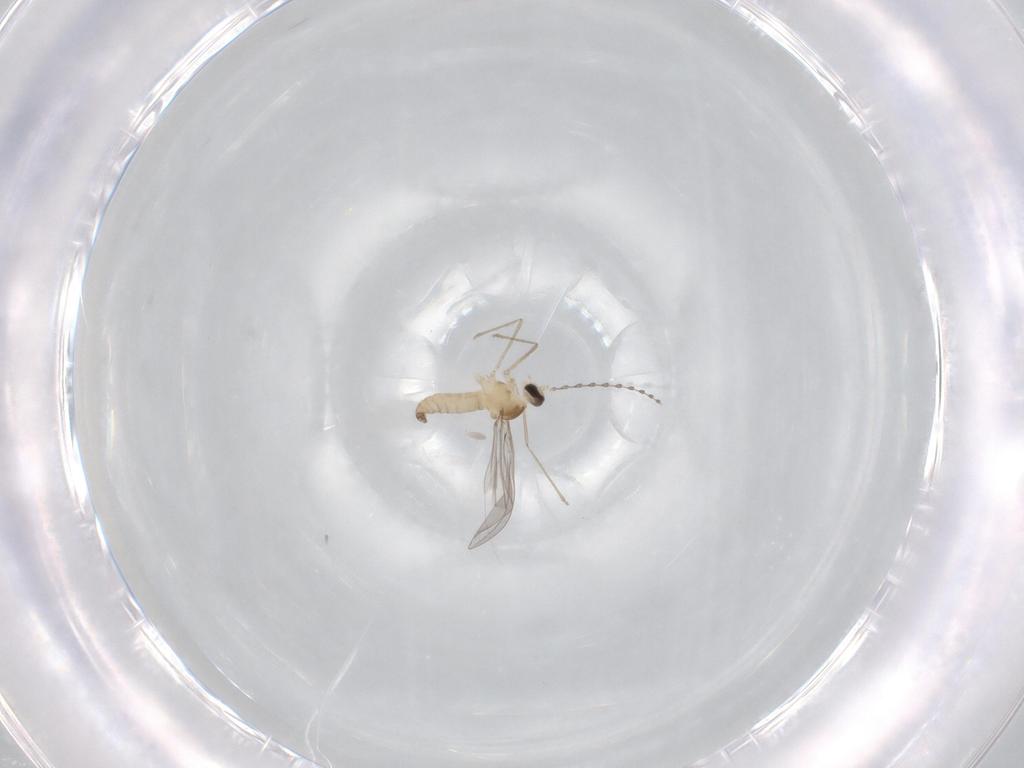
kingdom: Animalia
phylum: Arthropoda
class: Insecta
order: Diptera
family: Cecidomyiidae
